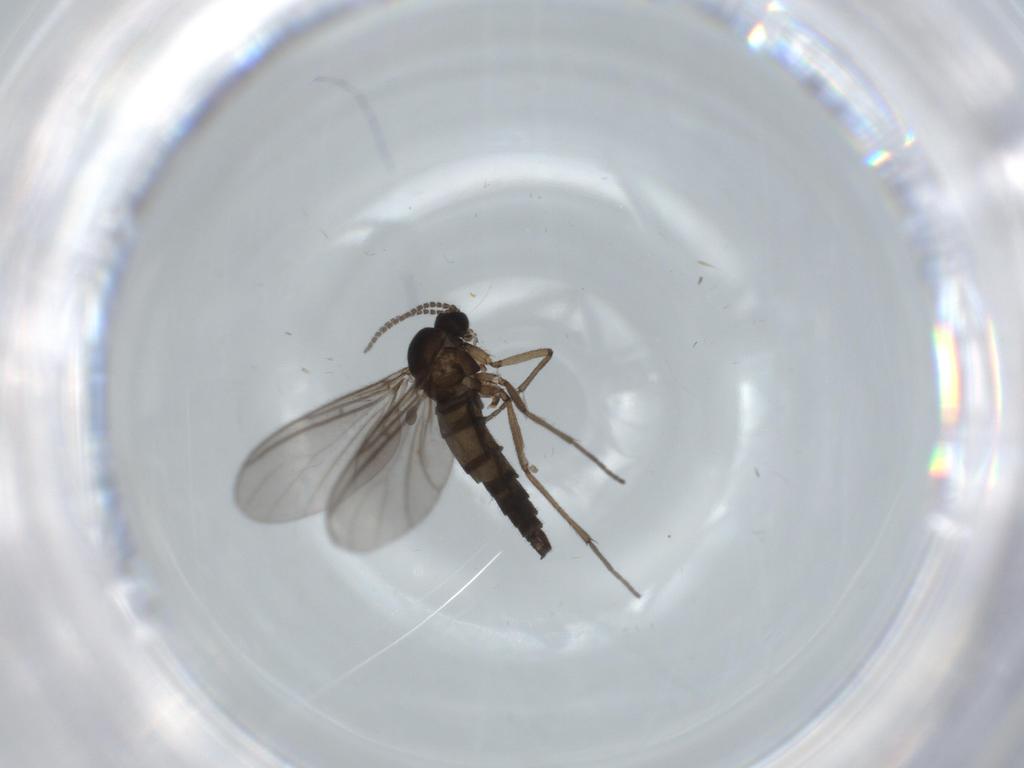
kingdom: Animalia
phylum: Arthropoda
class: Insecta
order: Diptera
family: Sciaridae
